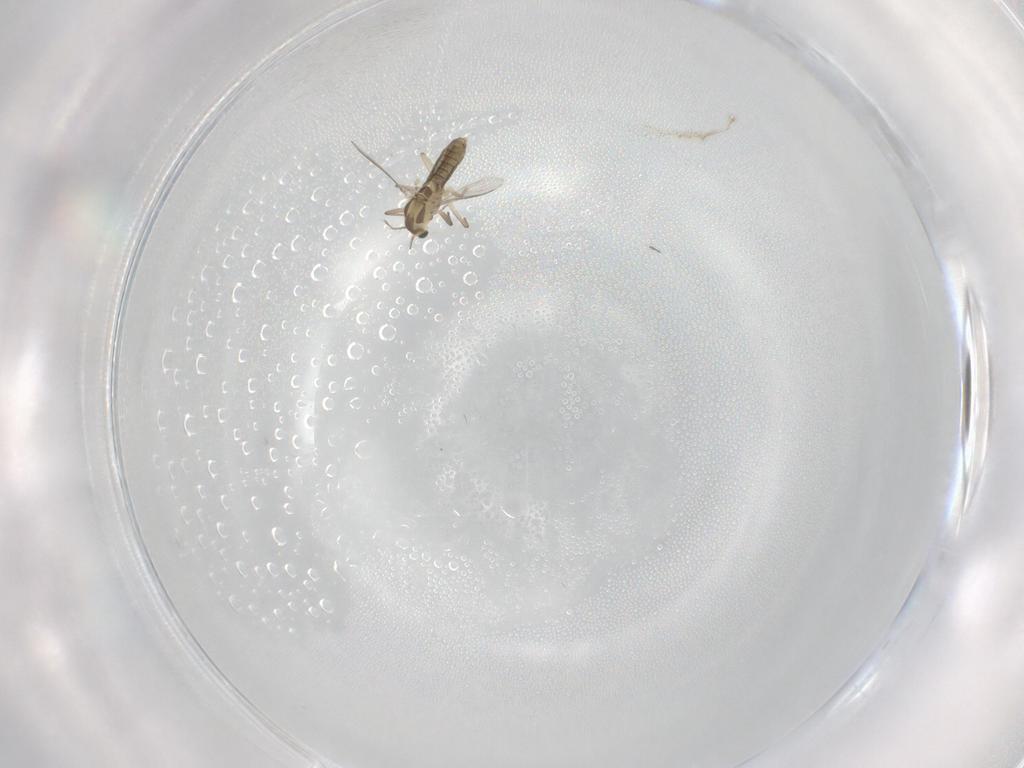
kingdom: Animalia
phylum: Arthropoda
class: Insecta
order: Diptera
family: Chironomidae
